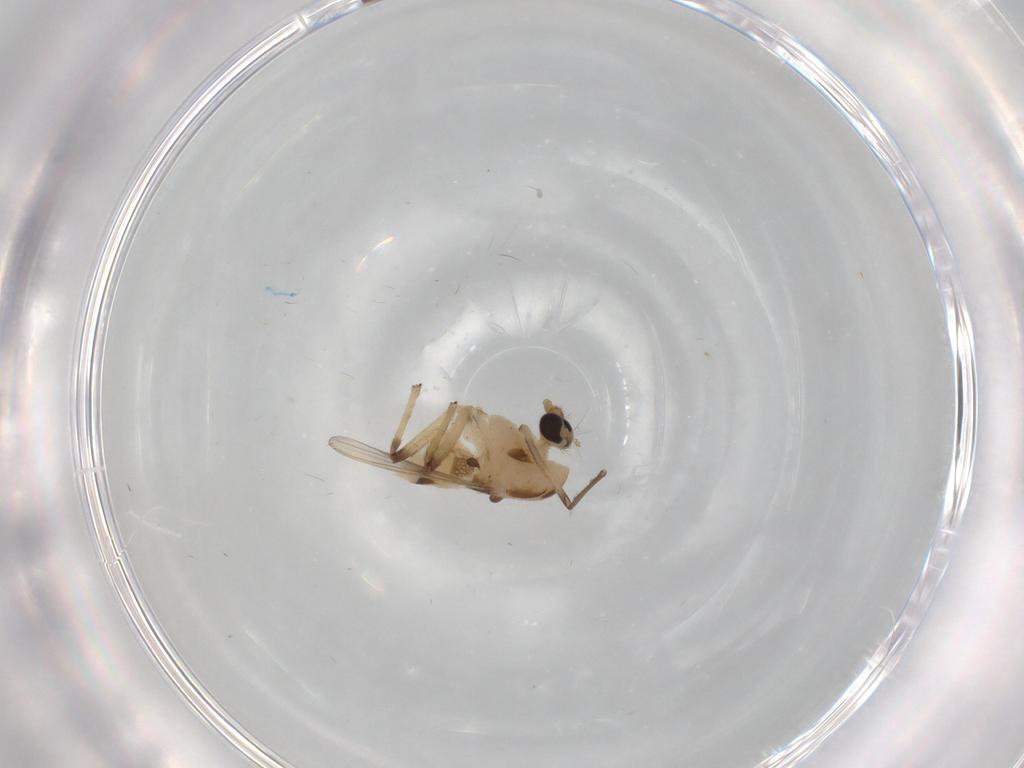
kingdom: Animalia
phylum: Arthropoda
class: Insecta
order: Diptera
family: Chironomidae
